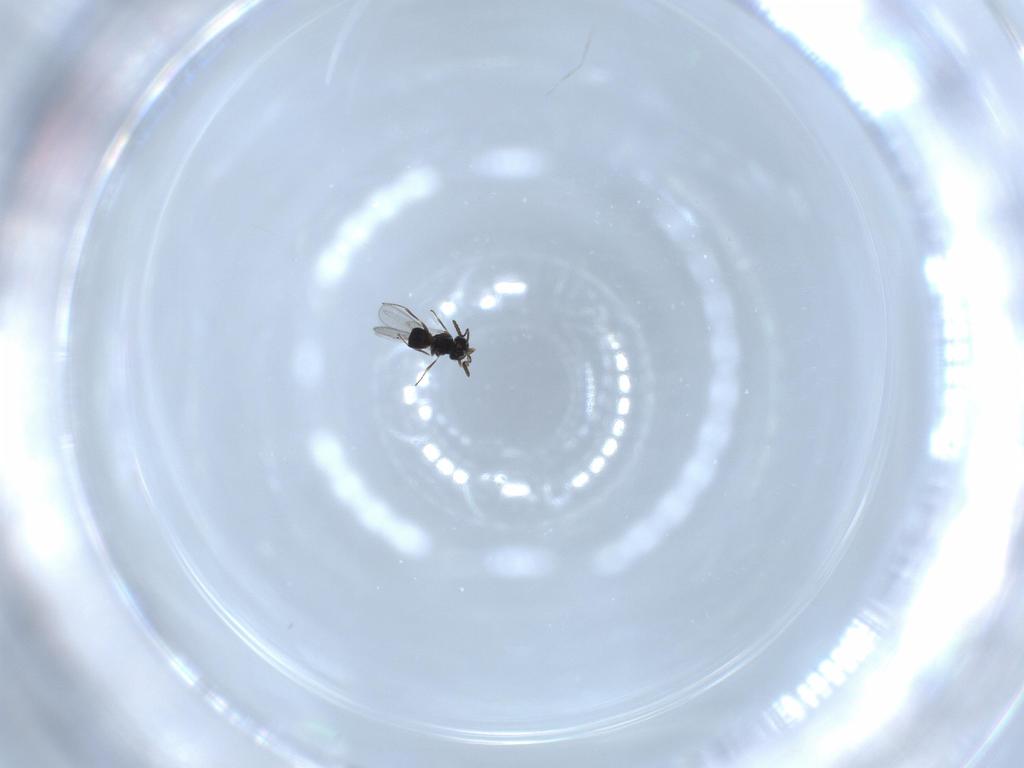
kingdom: Animalia
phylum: Arthropoda
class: Insecta
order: Hymenoptera
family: Scelionidae
